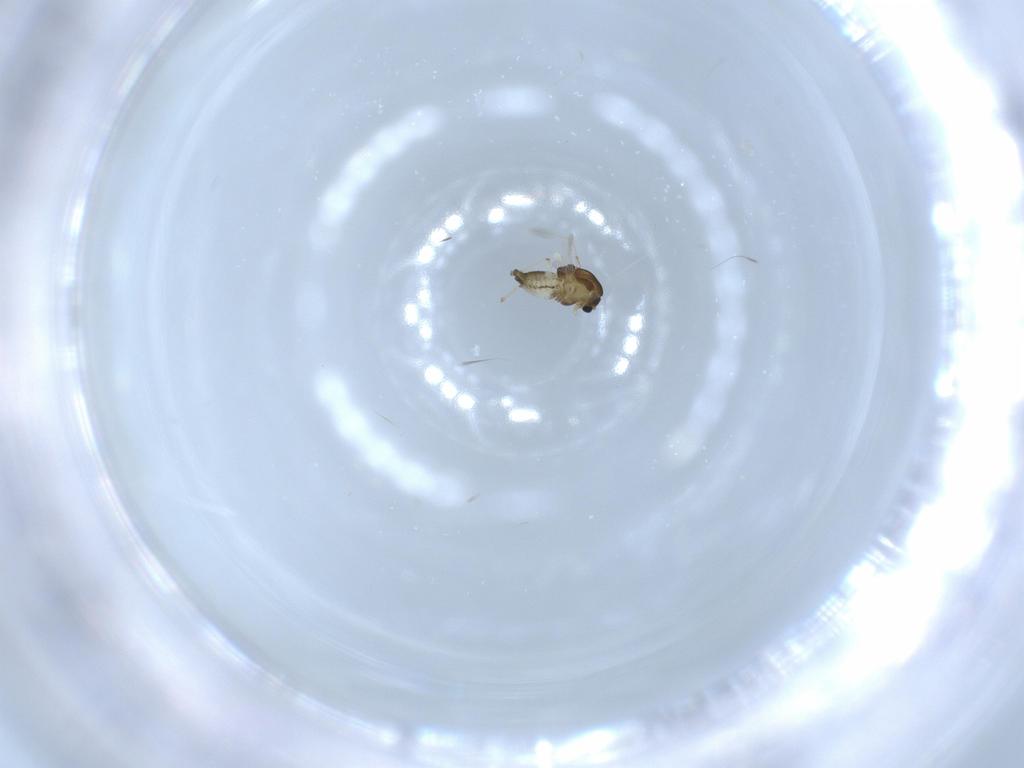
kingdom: Animalia
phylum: Arthropoda
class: Insecta
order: Diptera
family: Chironomidae
